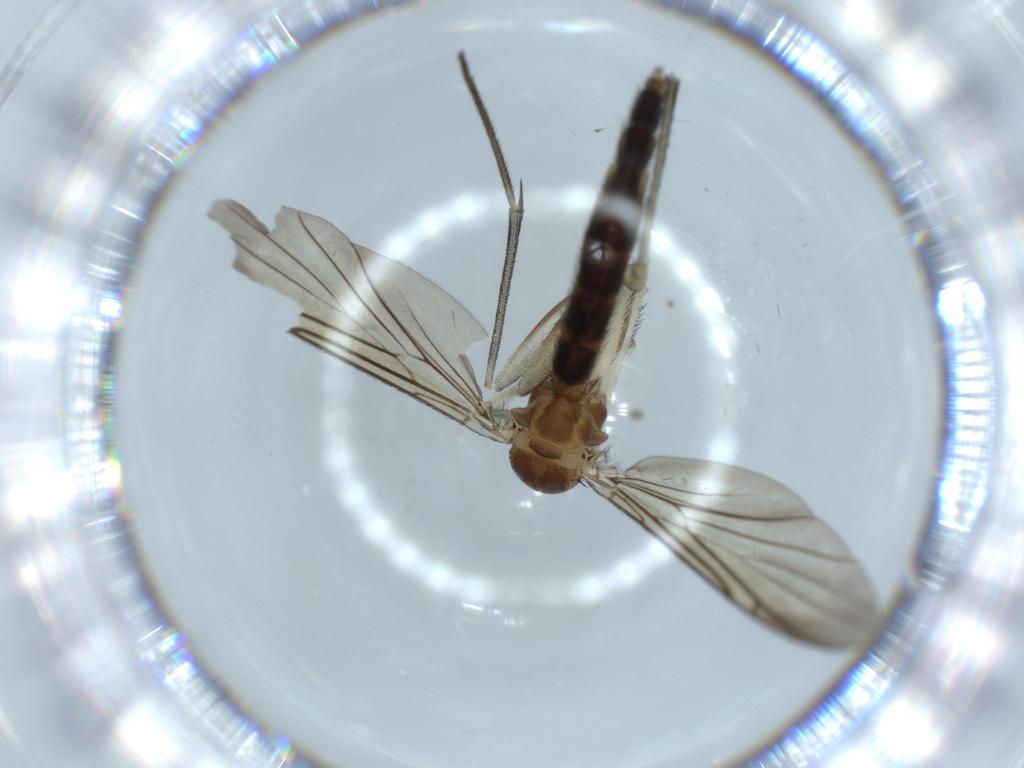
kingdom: Animalia
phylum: Arthropoda
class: Insecta
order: Diptera
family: Keroplatidae
